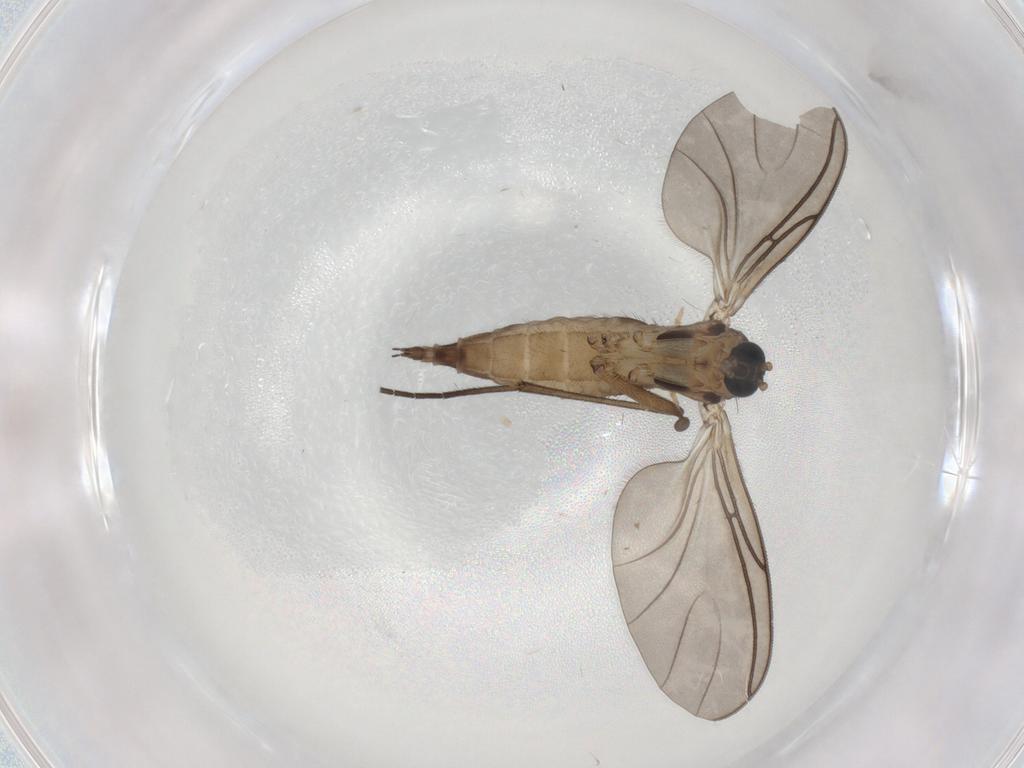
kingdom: Animalia
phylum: Arthropoda
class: Insecta
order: Diptera
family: Sciaridae
